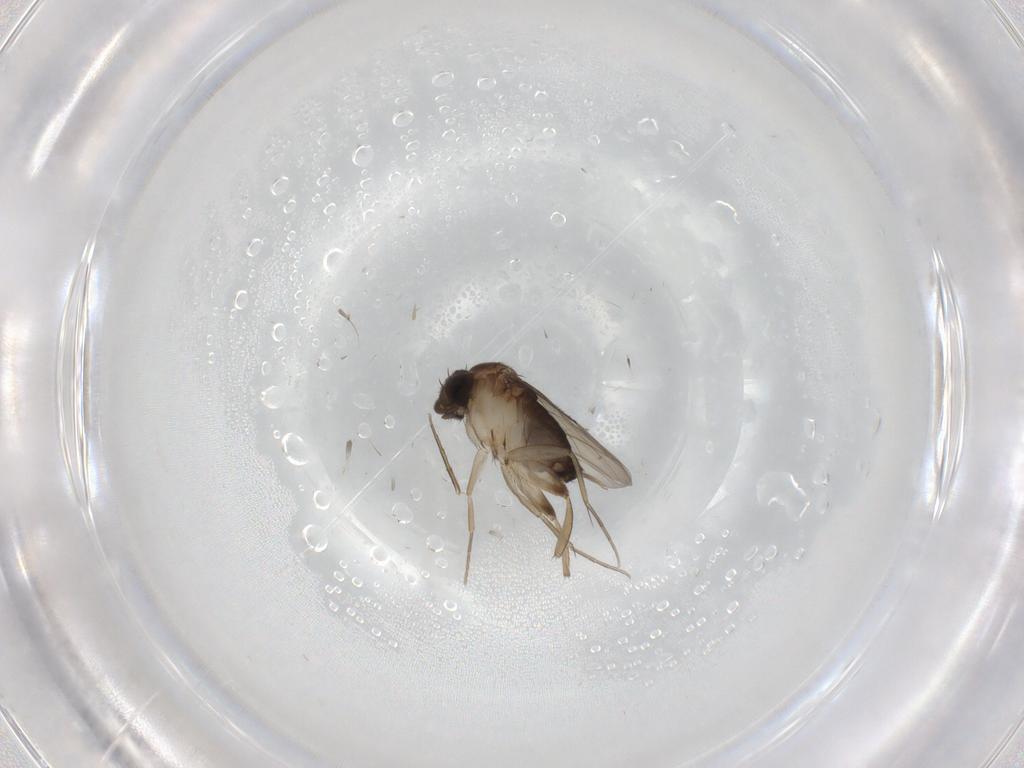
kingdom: Animalia
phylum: Arthropoda
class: Insecta
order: Diptera
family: Phoridae
